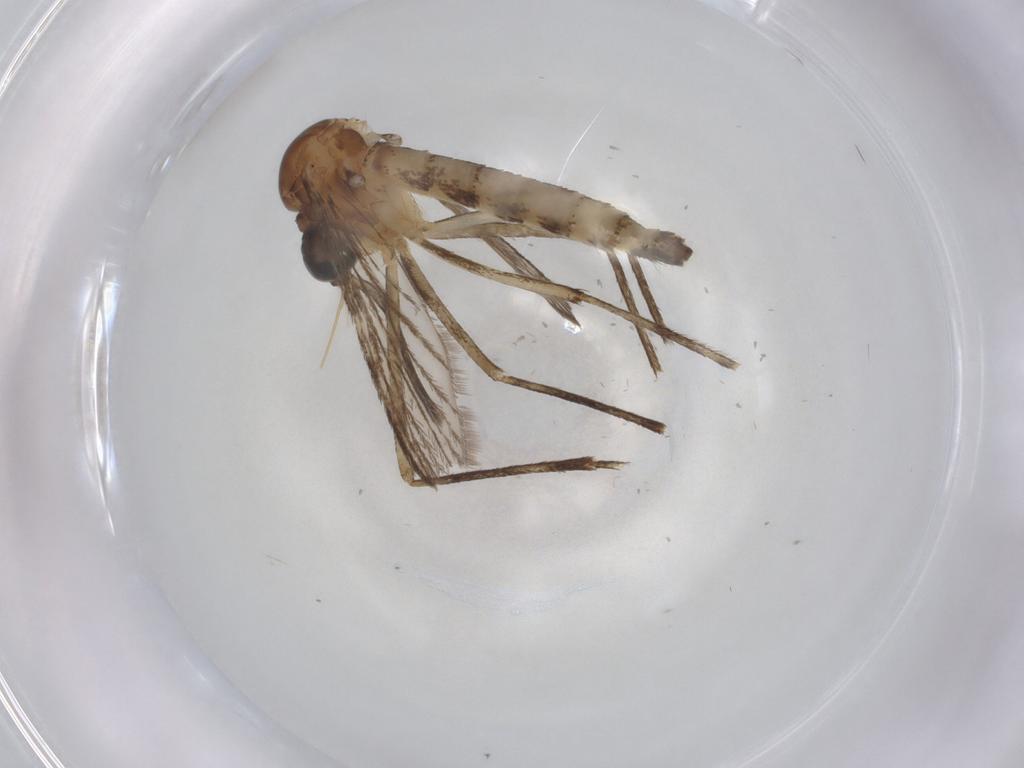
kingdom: Animalia
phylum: Arthropoda
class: Insecta
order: Diptera
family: Culicidae
